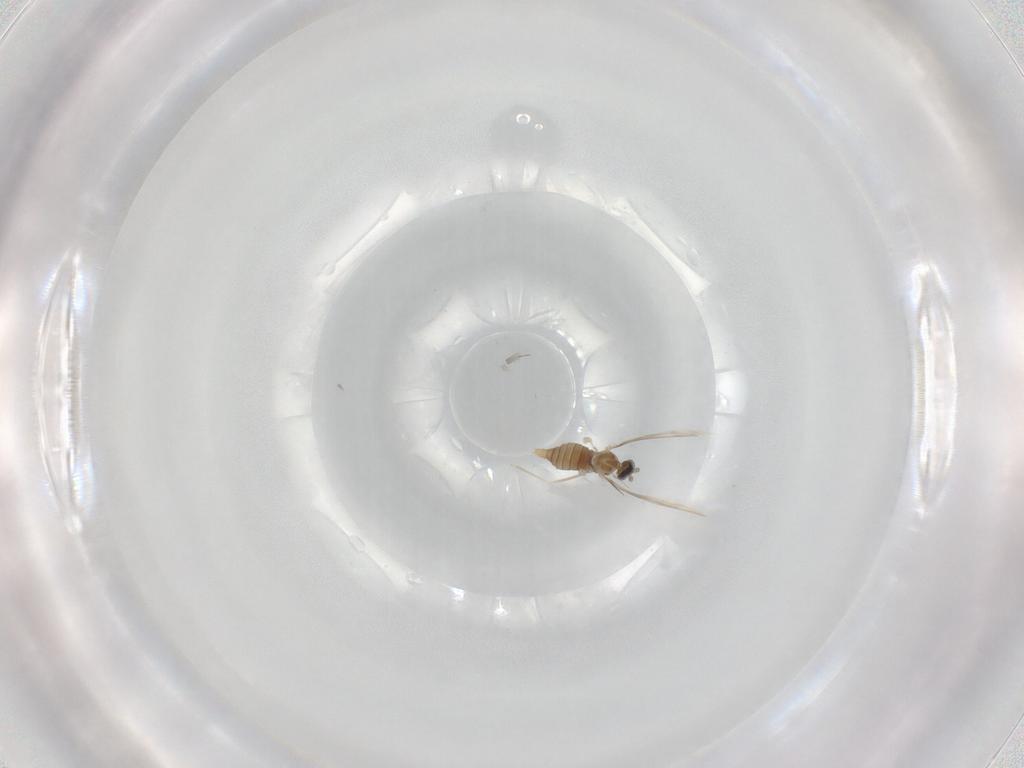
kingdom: Animalia
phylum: Arthropoda
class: Insecta
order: Diptera
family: Cecidomyiidae
